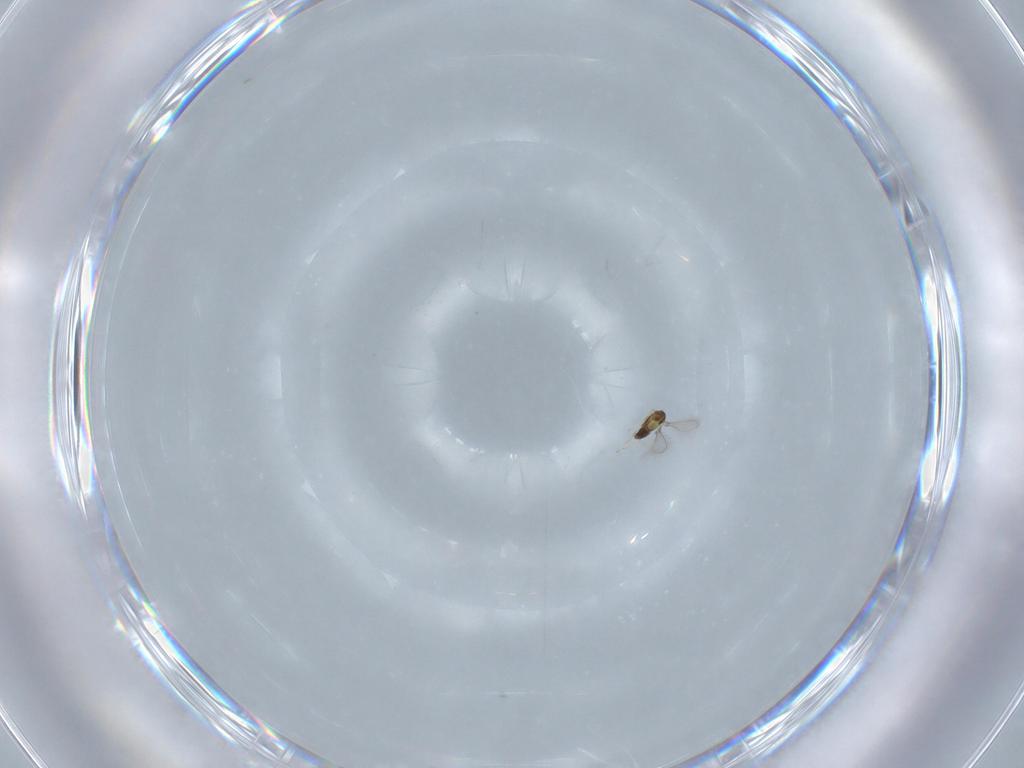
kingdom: Animalia
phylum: Arthropoda
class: Insecta
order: Hymenoptera
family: Mymaridae
